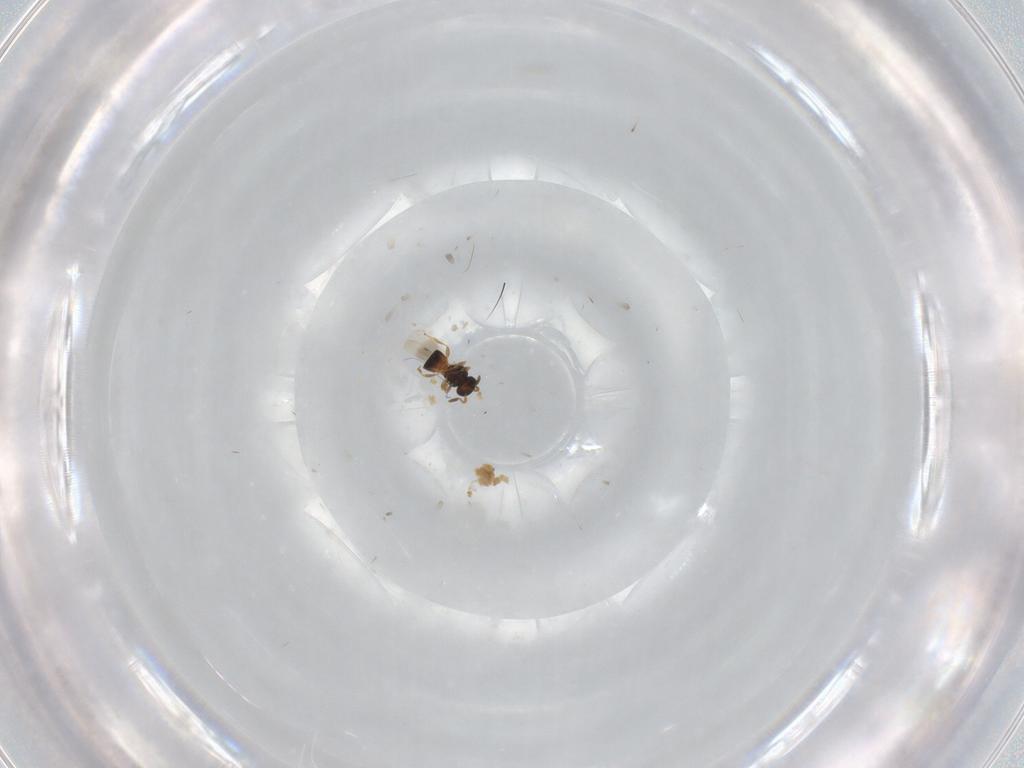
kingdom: Animalia
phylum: Arthropoda
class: Insecta
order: Hymenoptera
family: Platygastridae
